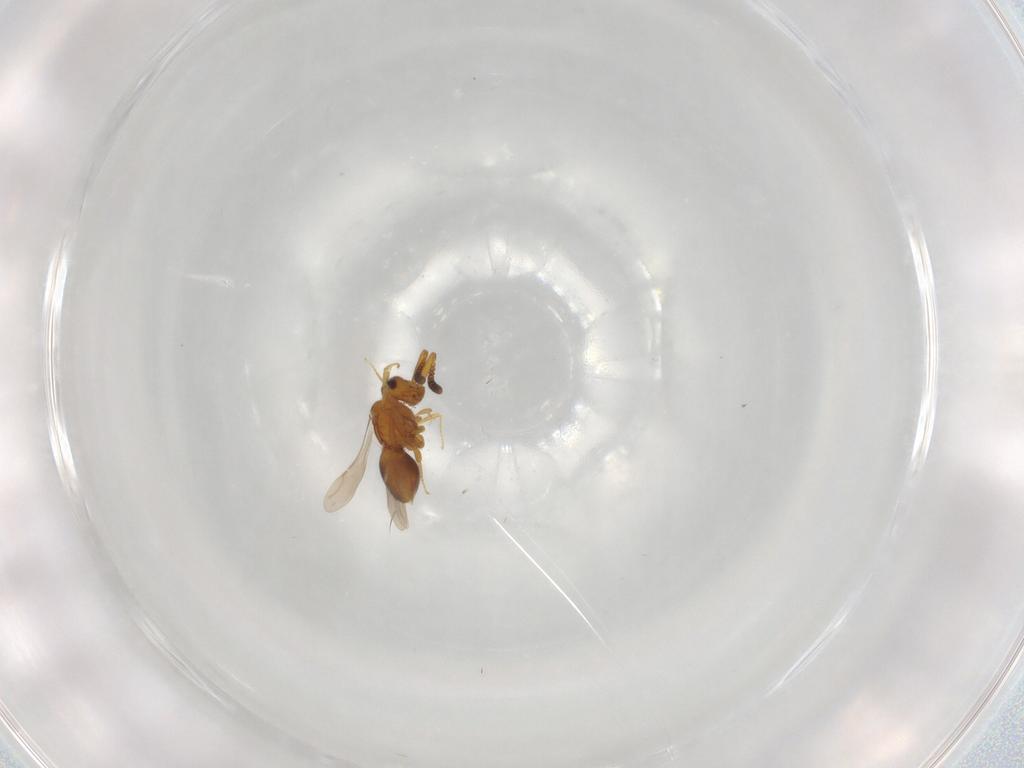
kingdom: Animalia
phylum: Arthropoda
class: Insecta
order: Hymenoptera
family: Ceraphronidae
